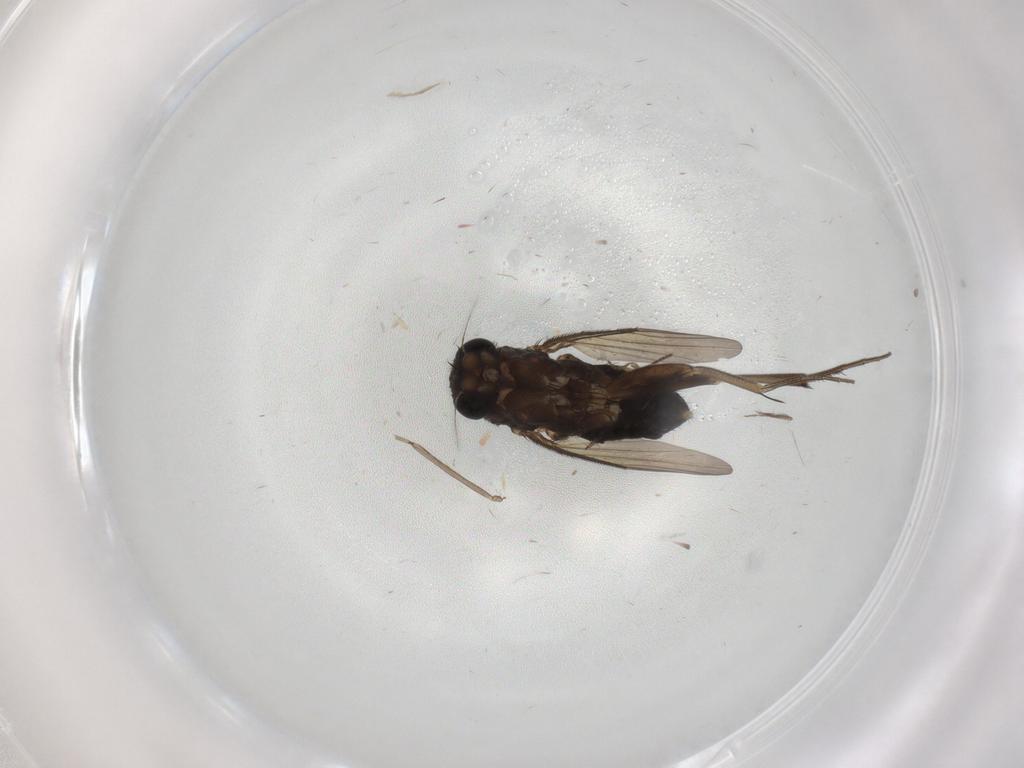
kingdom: Animalia
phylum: Arthropoda
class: Insecta
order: Diptera
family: Phoridae
